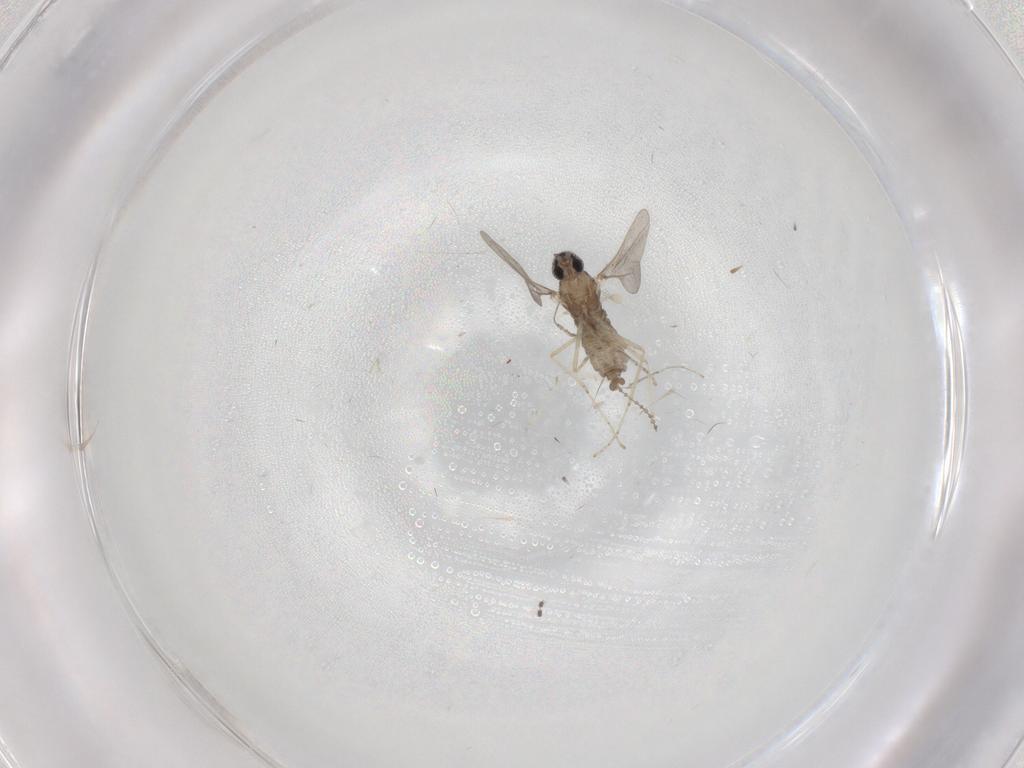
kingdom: Animalia
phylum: Arthropoda
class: Insecta
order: Diptera
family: Cecidomyiidae
